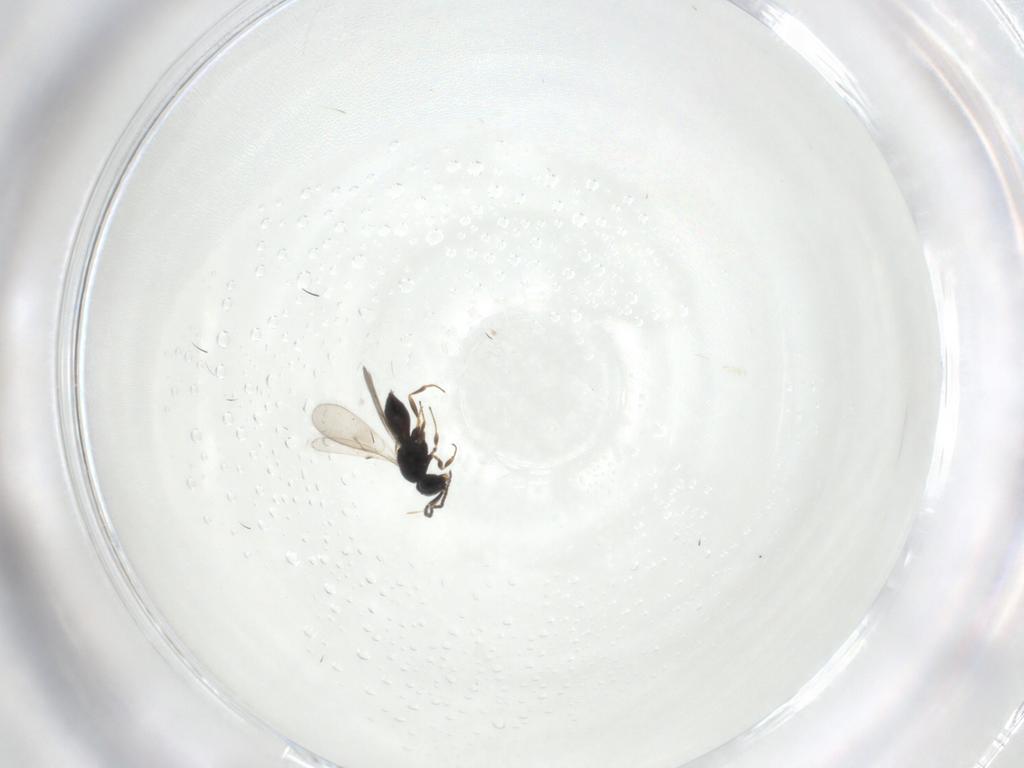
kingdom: Animalia
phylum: Arthropoda
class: Insecta
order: Hymenoptera
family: Scelionidae
